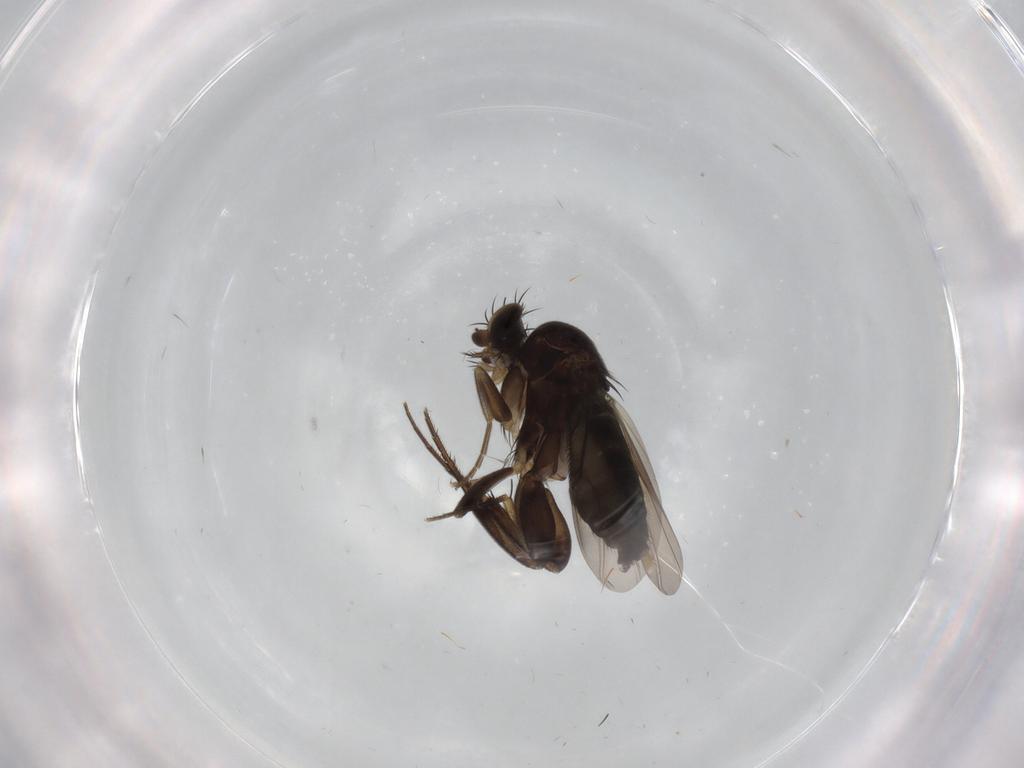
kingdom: Animalia
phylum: Arthropoda
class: Insecta
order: Diptera
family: Phoridae
